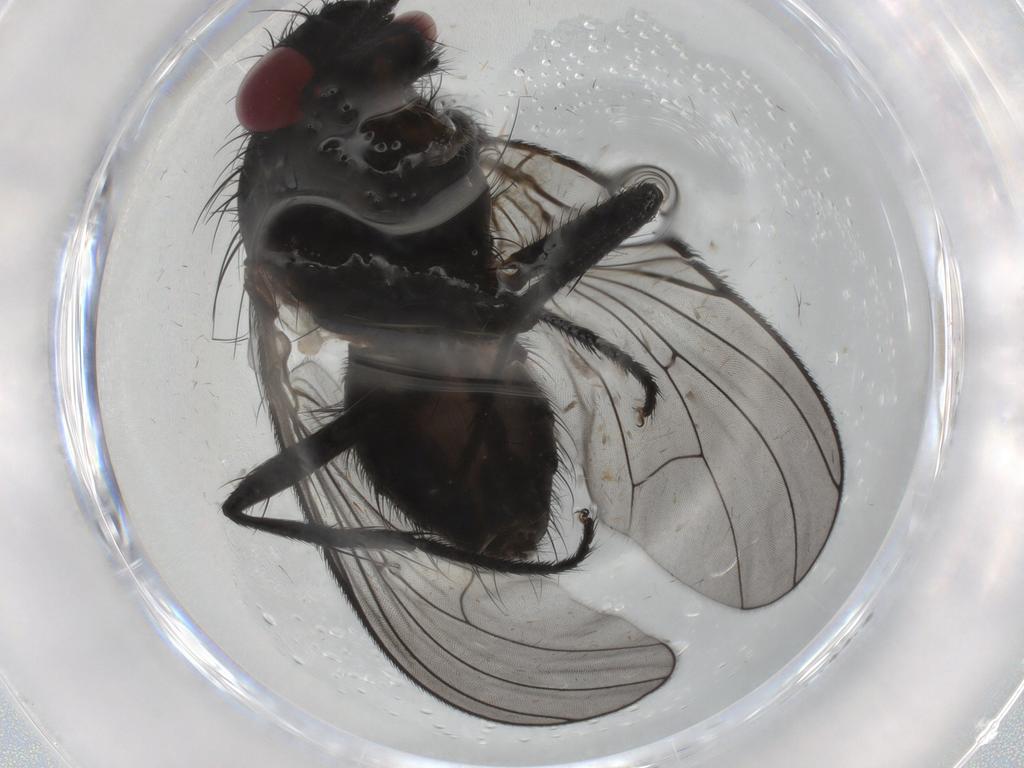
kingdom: Animalia
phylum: Arthropoda
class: Insecta
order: Diptera
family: Fannia
